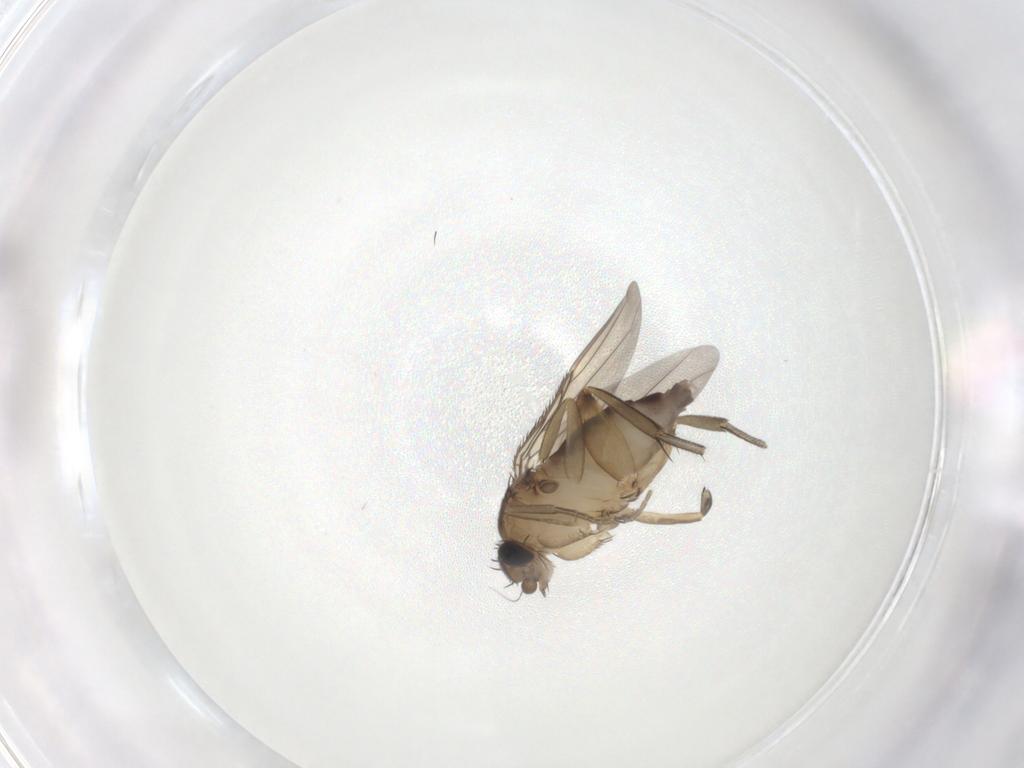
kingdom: Animalia
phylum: Arthropoda
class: Insecta
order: Diptera
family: Phoridae
